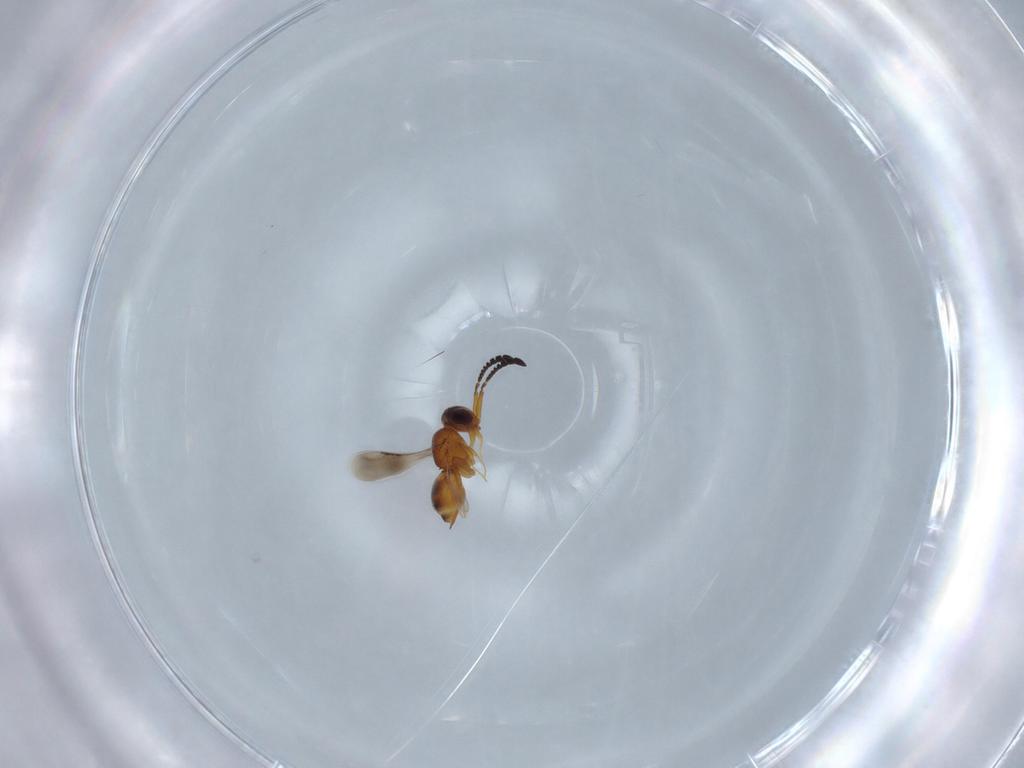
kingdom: Animalia
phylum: Arthropoda
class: Insecta
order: Hymenoptera
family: Ceraphronidae
